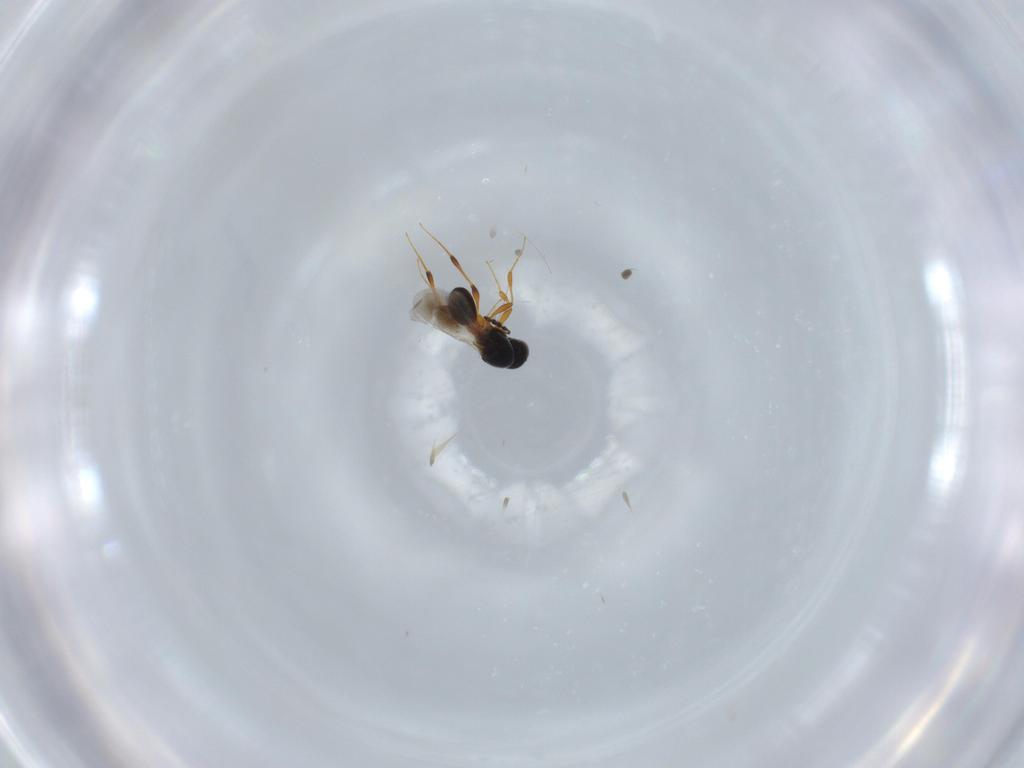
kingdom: Animalia
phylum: Arthropoda
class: Insecta
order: Hymenoptera
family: Platygastridae
